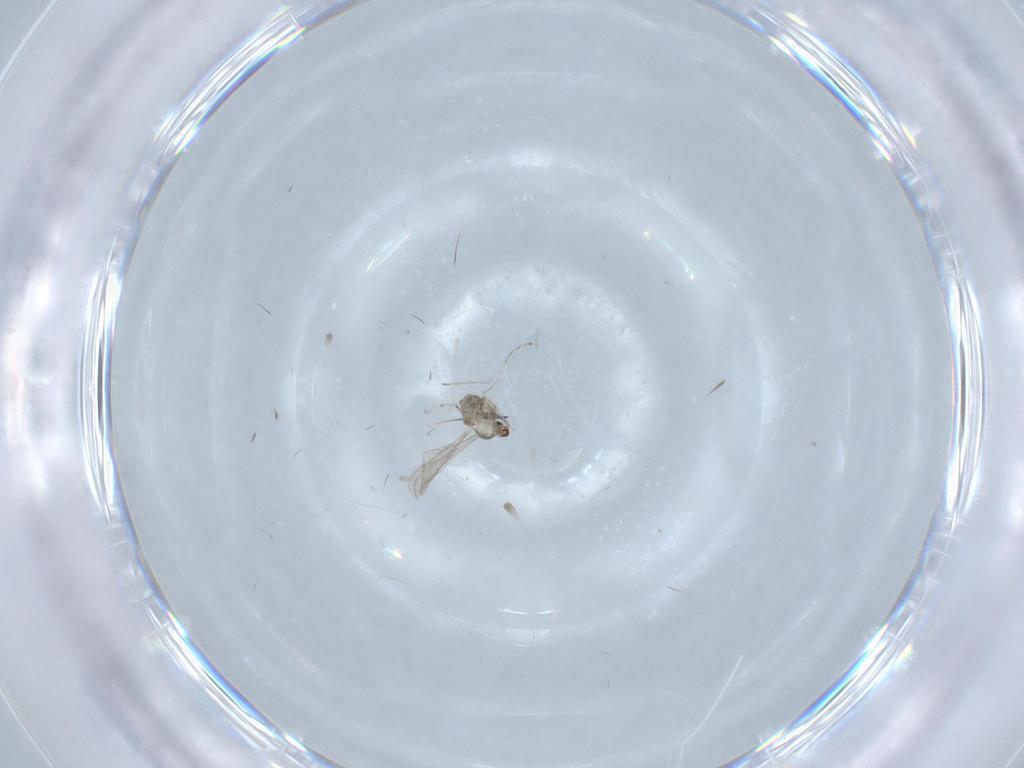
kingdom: Animalia
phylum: Arthropoda
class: Insecta
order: Diptera
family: Cecidomyiidae
